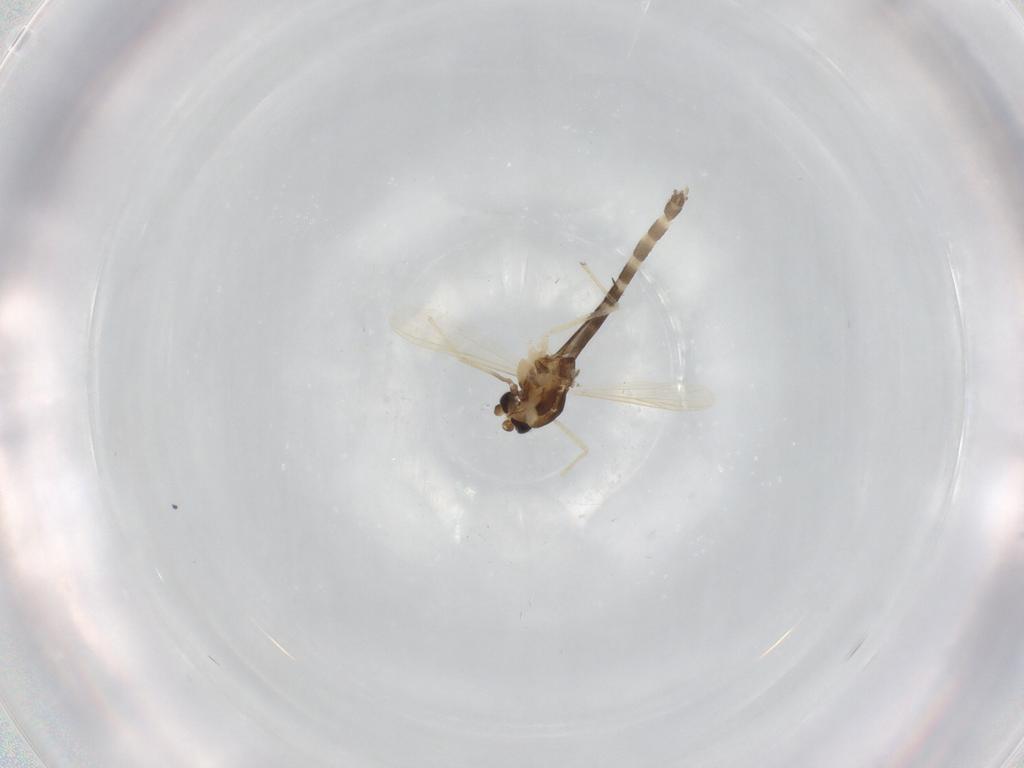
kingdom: Animalia
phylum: Arthropoda
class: Insecta
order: Diptera
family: Chironomidae
